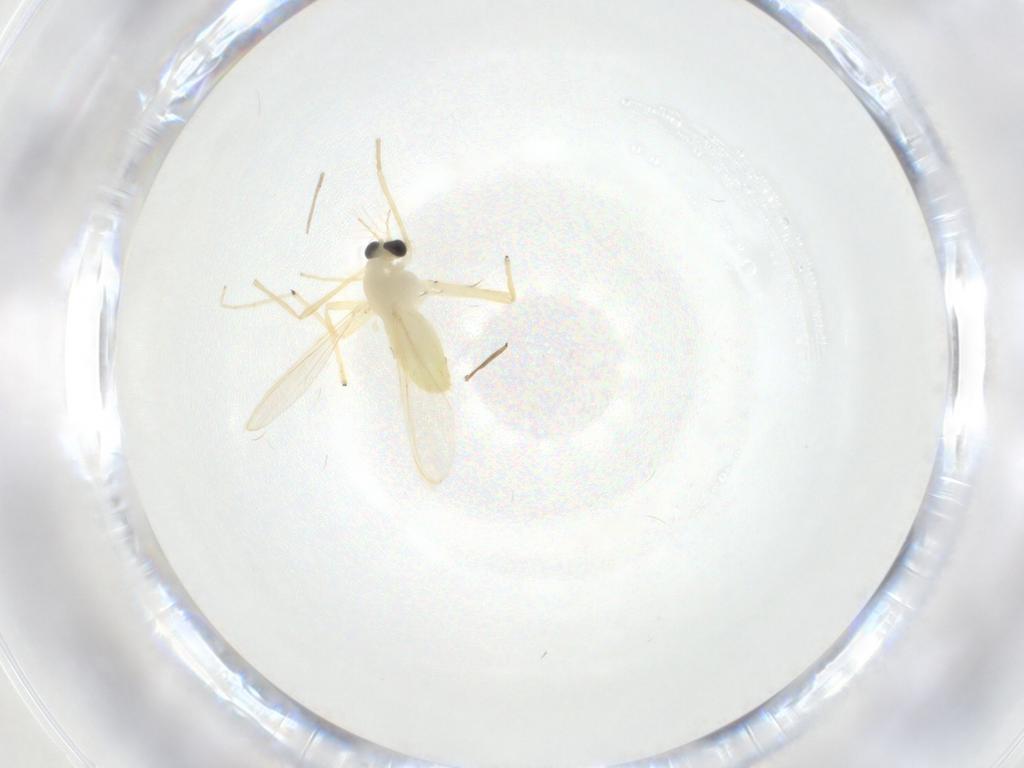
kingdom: Animalia
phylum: Arthropoda
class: Insecta
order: Diptera
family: Chironomidae
